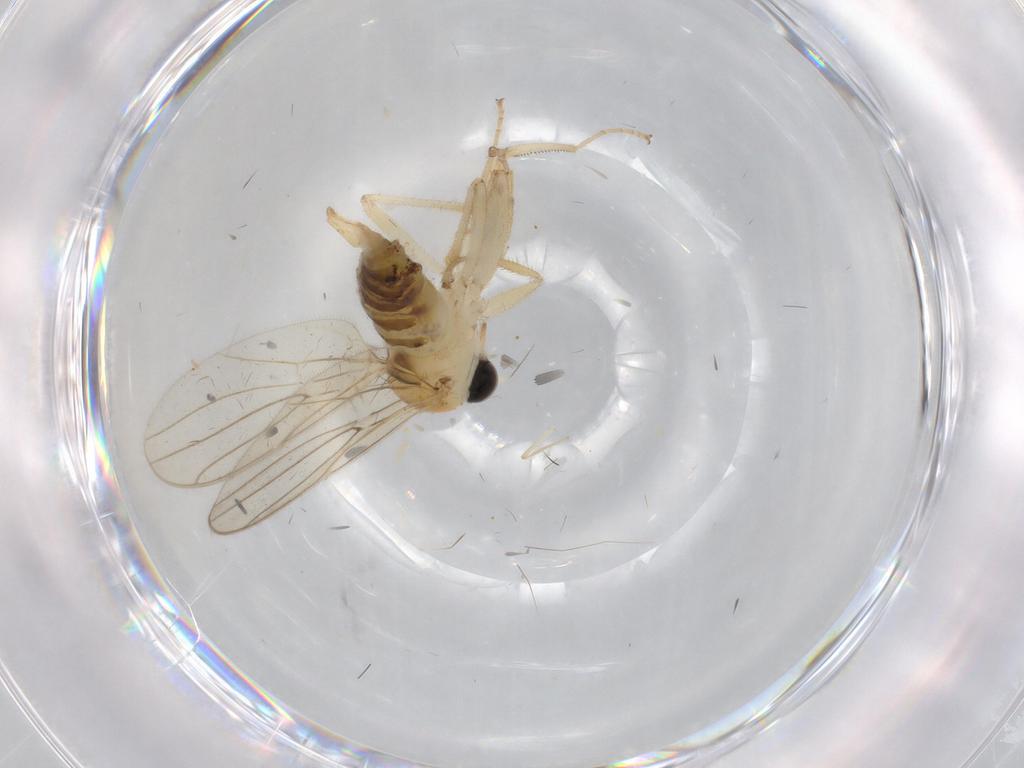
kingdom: Animalia
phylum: Arthropoda
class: Insecta
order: Diptera
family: Hybotidae
